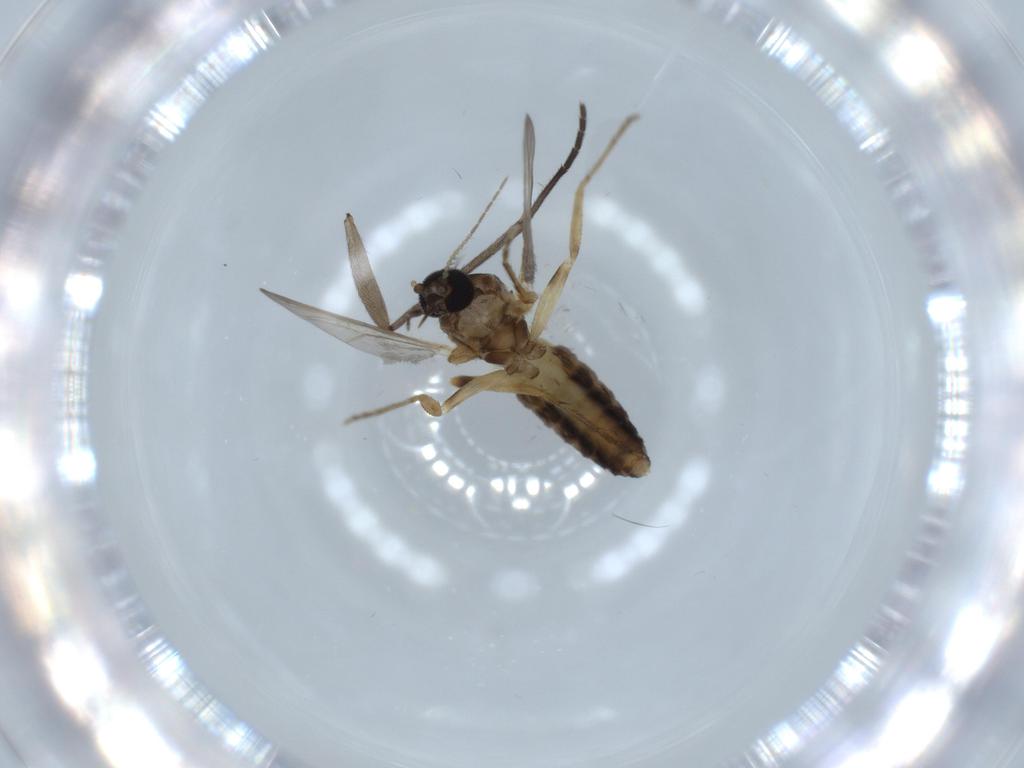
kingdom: Animalia
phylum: Arthropoda
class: Insecta
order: Diptera
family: Ceratopogonidae
